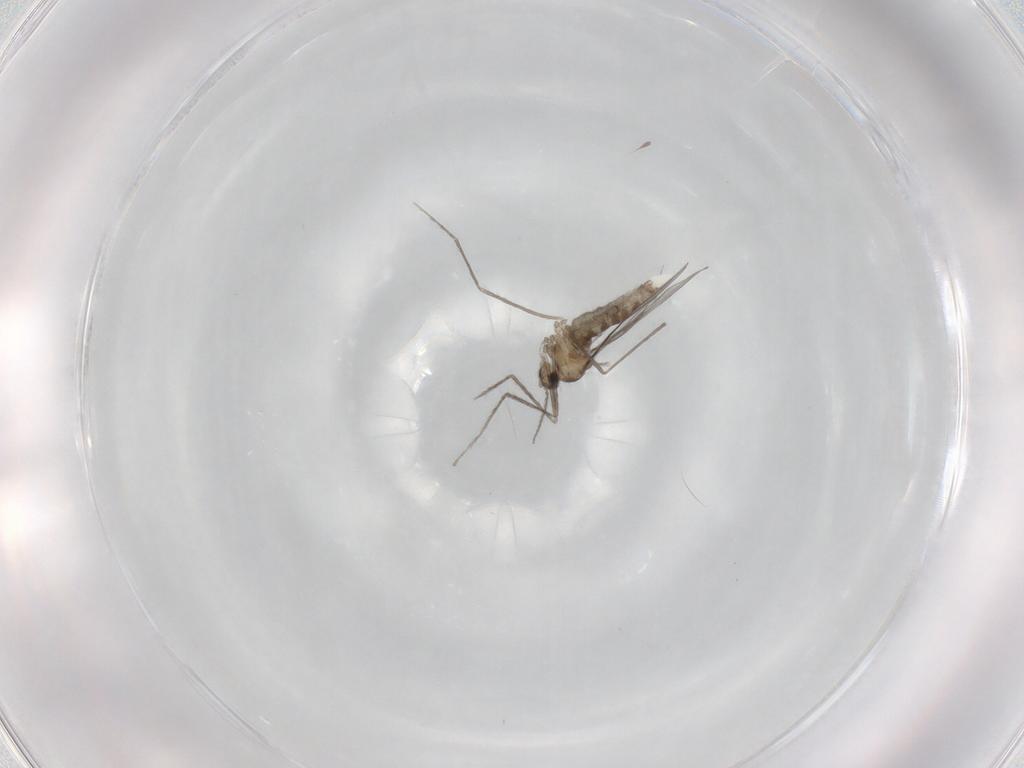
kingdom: Animalia
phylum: Arthropoda
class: Insecta
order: Diptera
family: Cecidomyiidae
